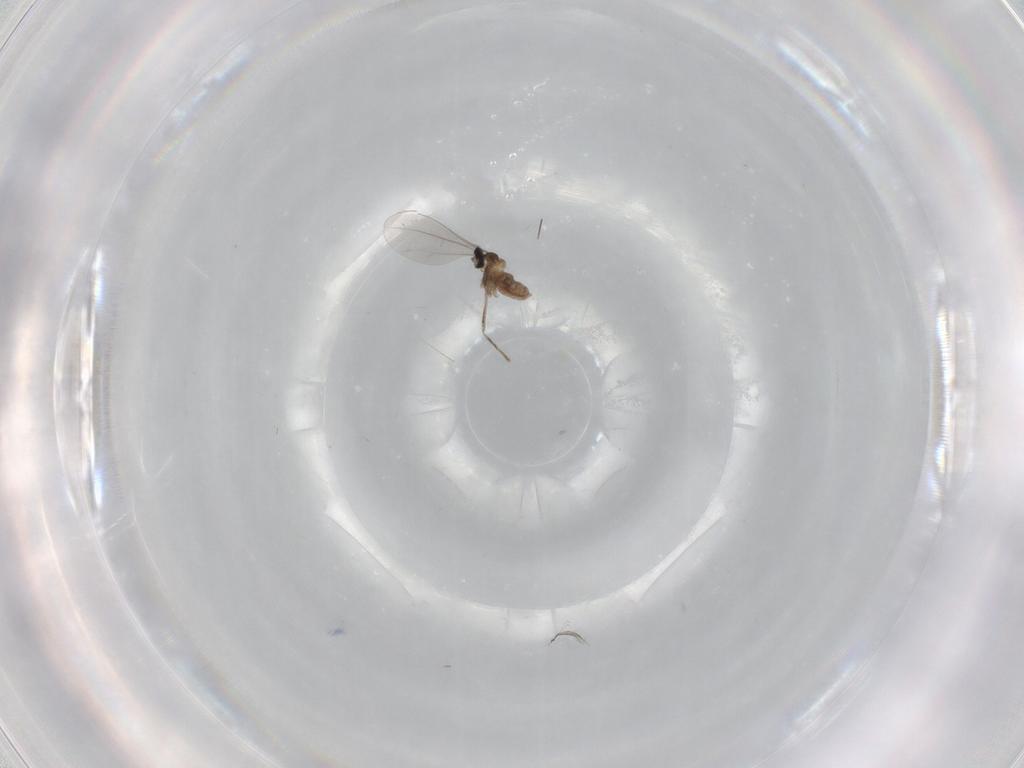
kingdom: Animalia
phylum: Arthropoda
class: Insecta
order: Diptera
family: Cecidomyiidae
